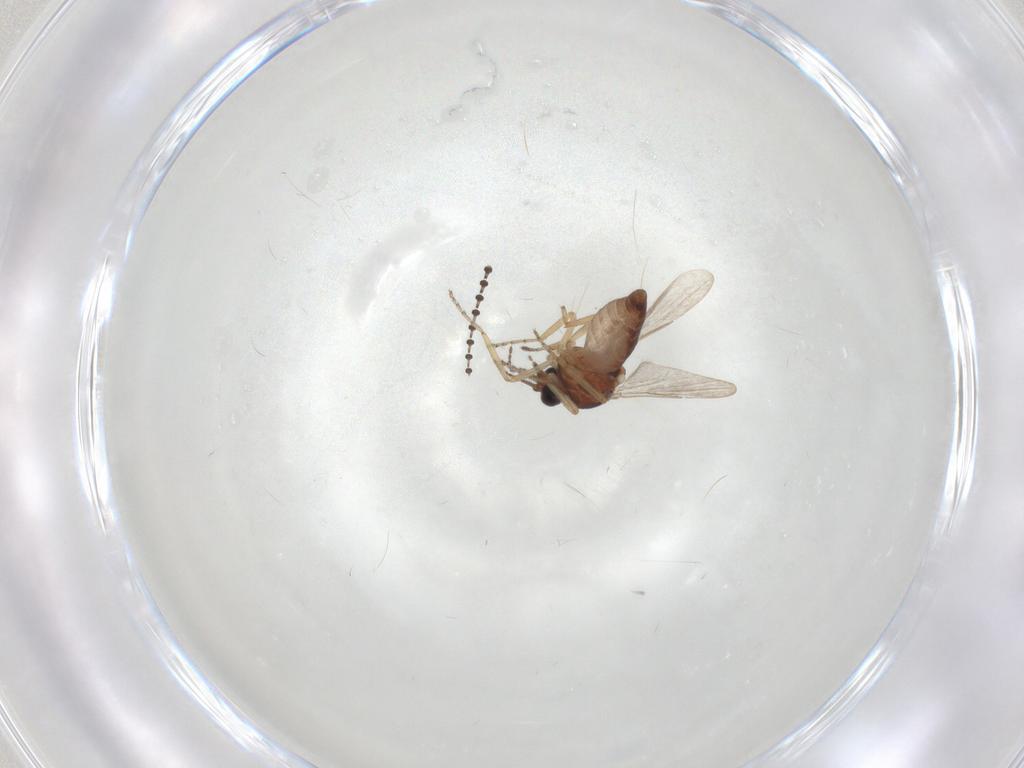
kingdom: Animalia
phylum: Arthropoda
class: Insecta
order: Diptera
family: Ceratopogonidae
